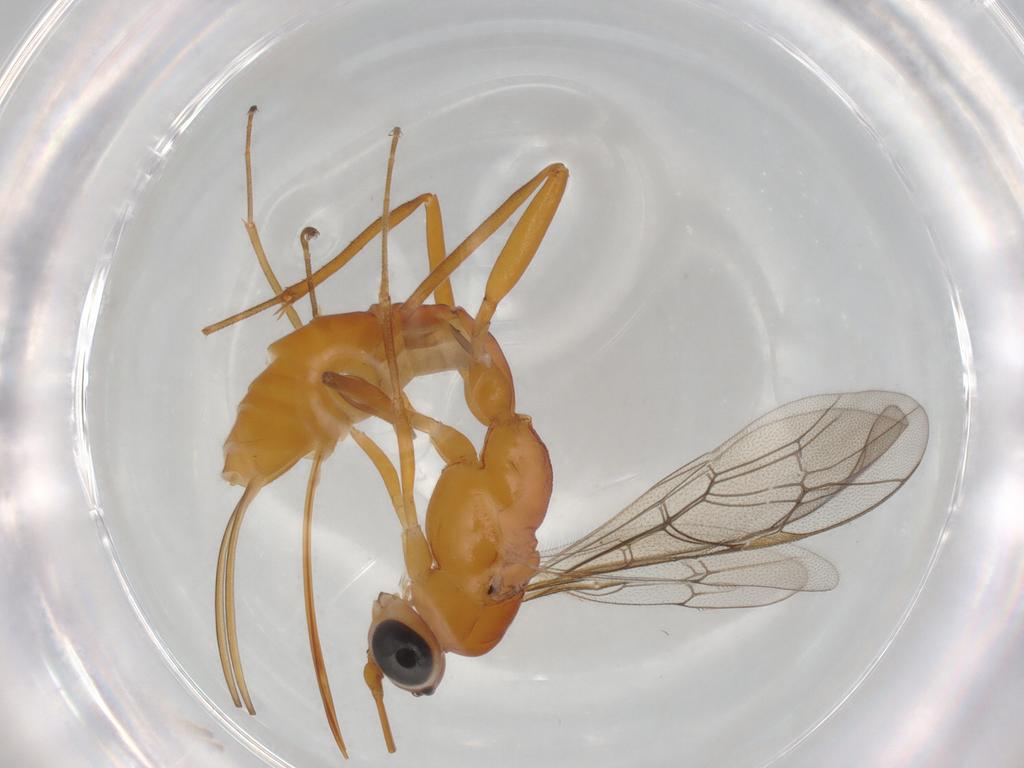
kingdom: Animalia
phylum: Arthropoda
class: Insecta
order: Hymenoptera
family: Scelionidae
